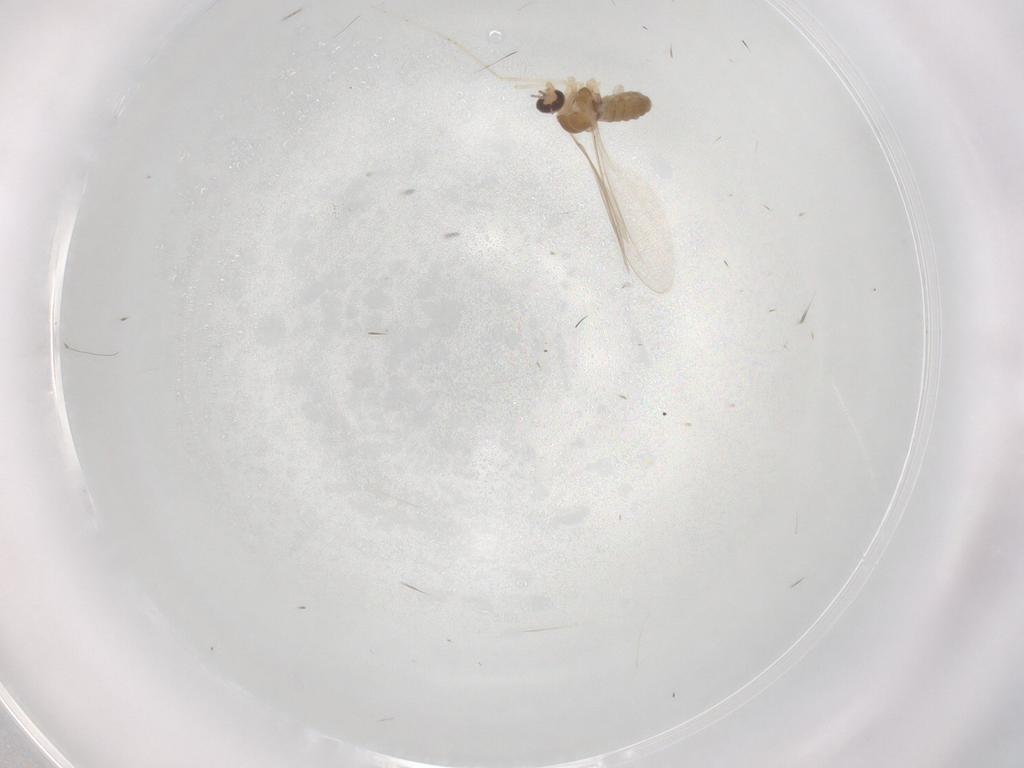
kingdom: Animalia
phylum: Arthropoda
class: Insecta
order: Diptera
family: Cecidomyiidae
